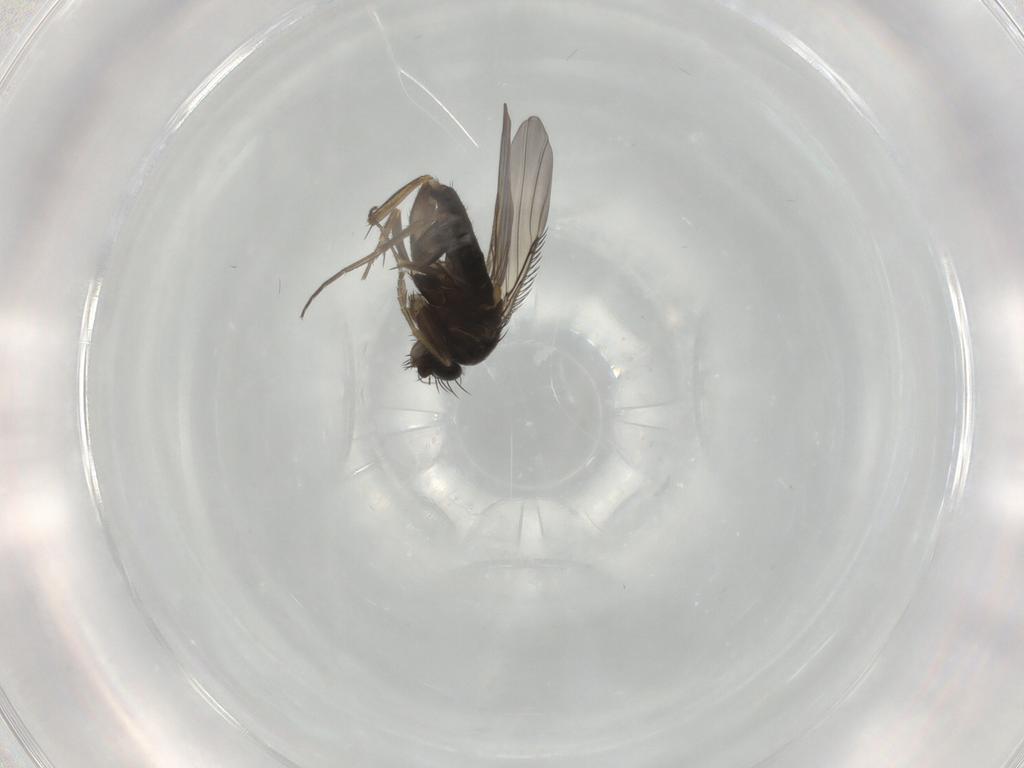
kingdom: Animalia
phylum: Arthropoda
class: Insecta
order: Diptera
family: Phoridae
